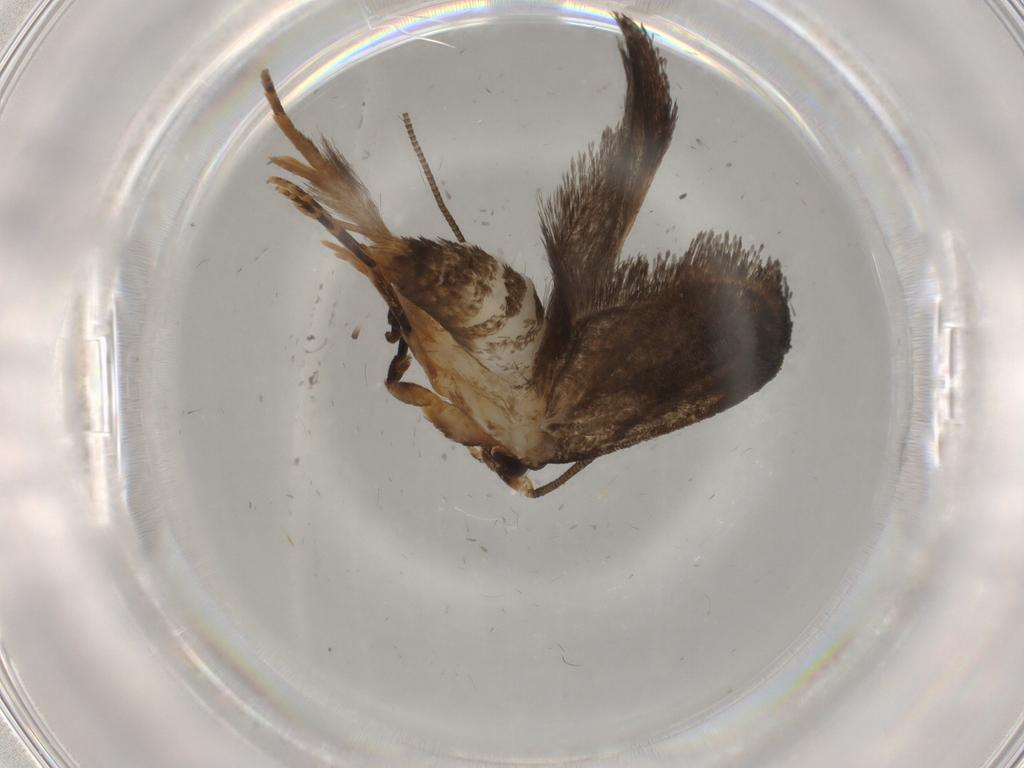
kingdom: Animalia
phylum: Arthropoda
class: Insecta
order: Lepidoptera
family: Tineidae
